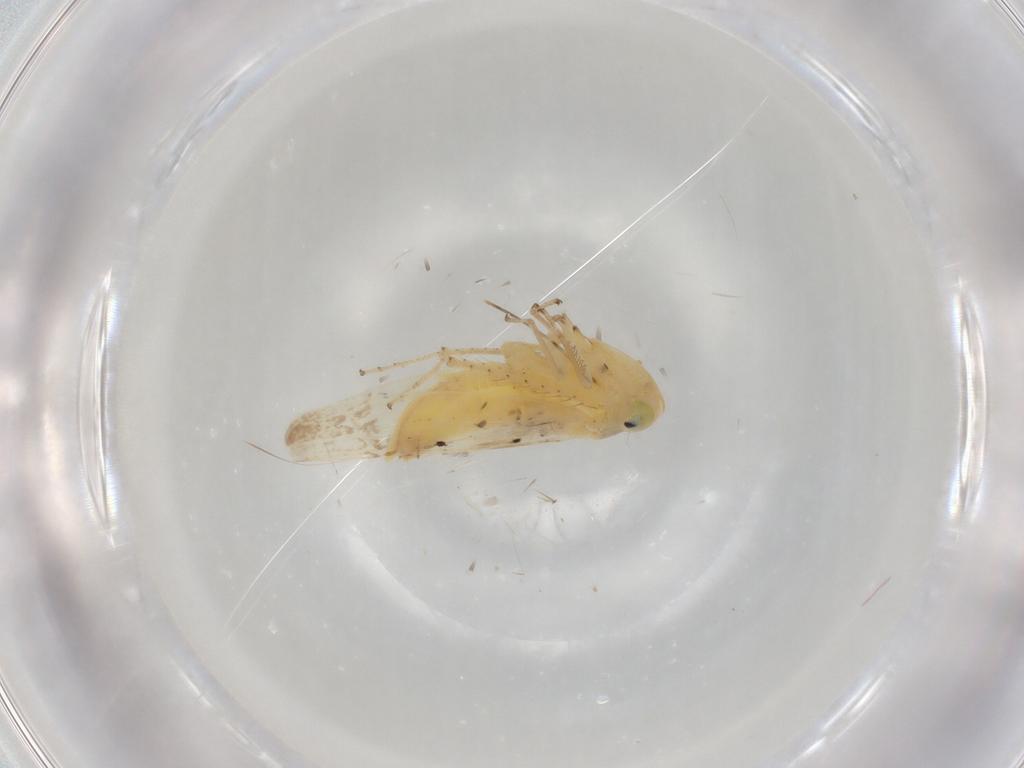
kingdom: Animalia
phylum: Arthropoda
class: Insecta
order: Hemiptera
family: Reduviidae
